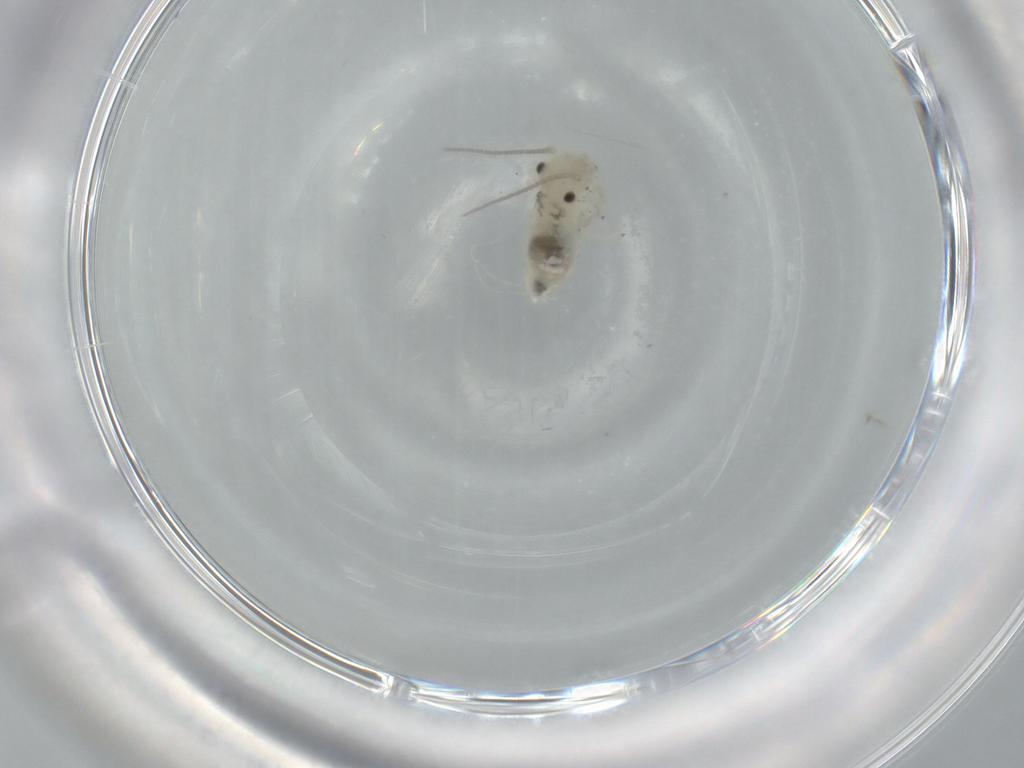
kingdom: Animalia
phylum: Arthropoda
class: Insecta
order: Psocodea
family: Caeciliusidae
